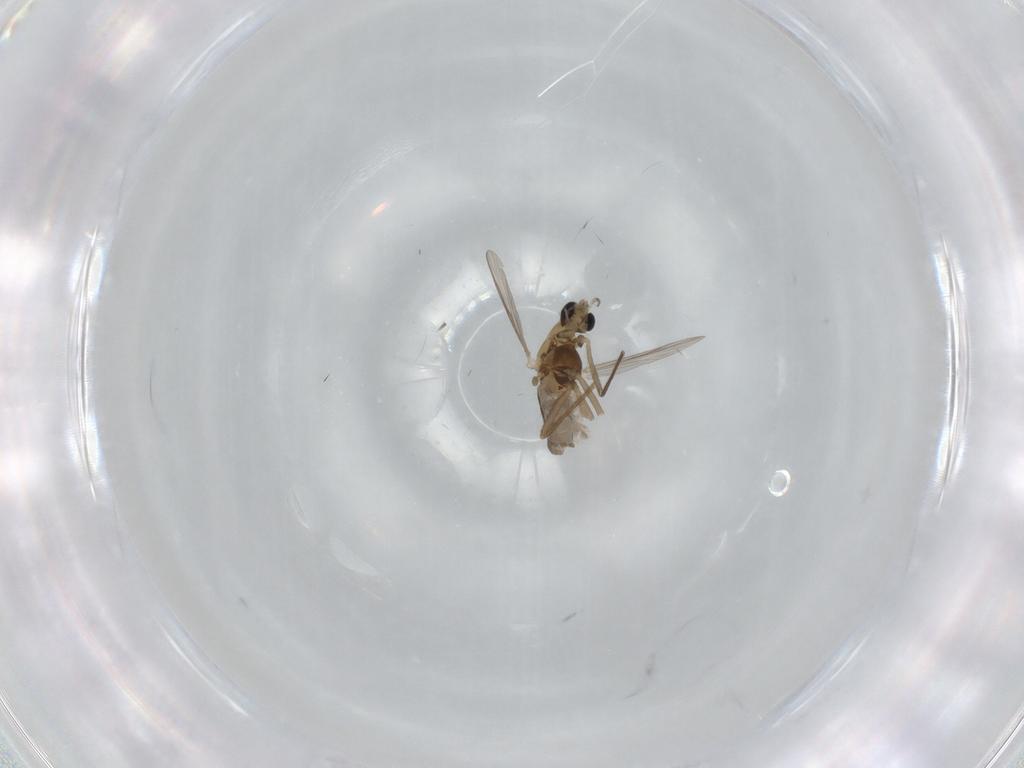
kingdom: Animalia
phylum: Arthropoda
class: Insecta
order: Diptera
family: Chironomidae
